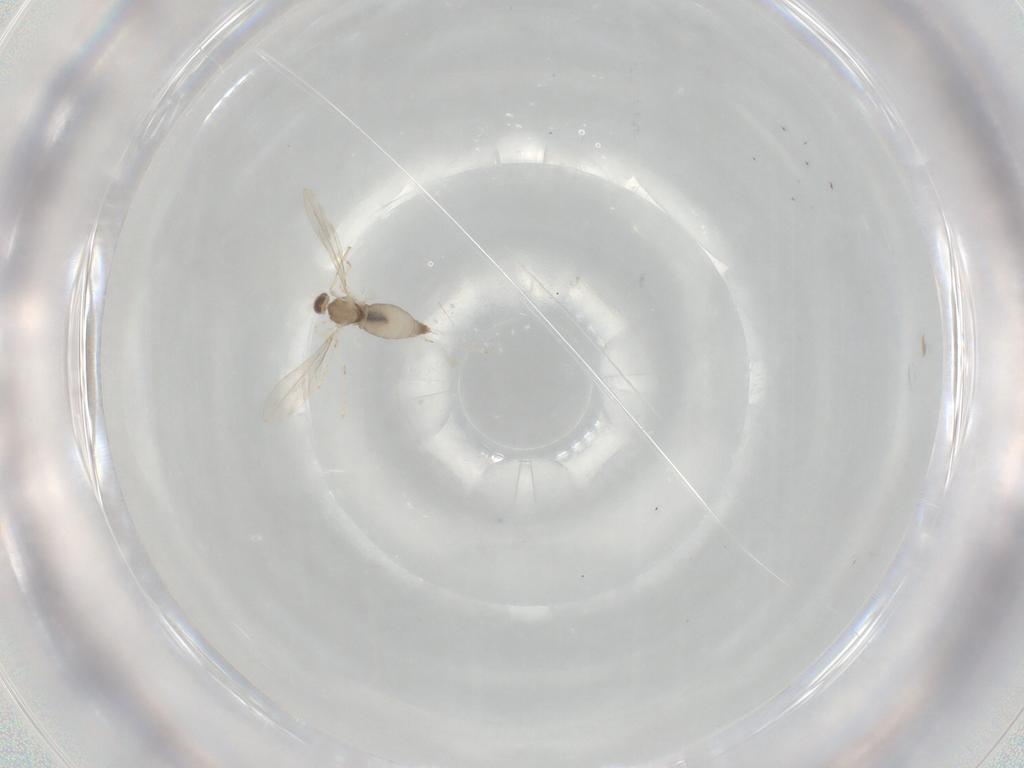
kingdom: Animalia
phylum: Arthropoda
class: Insecta
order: Diptera
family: Cecidomyiidae
